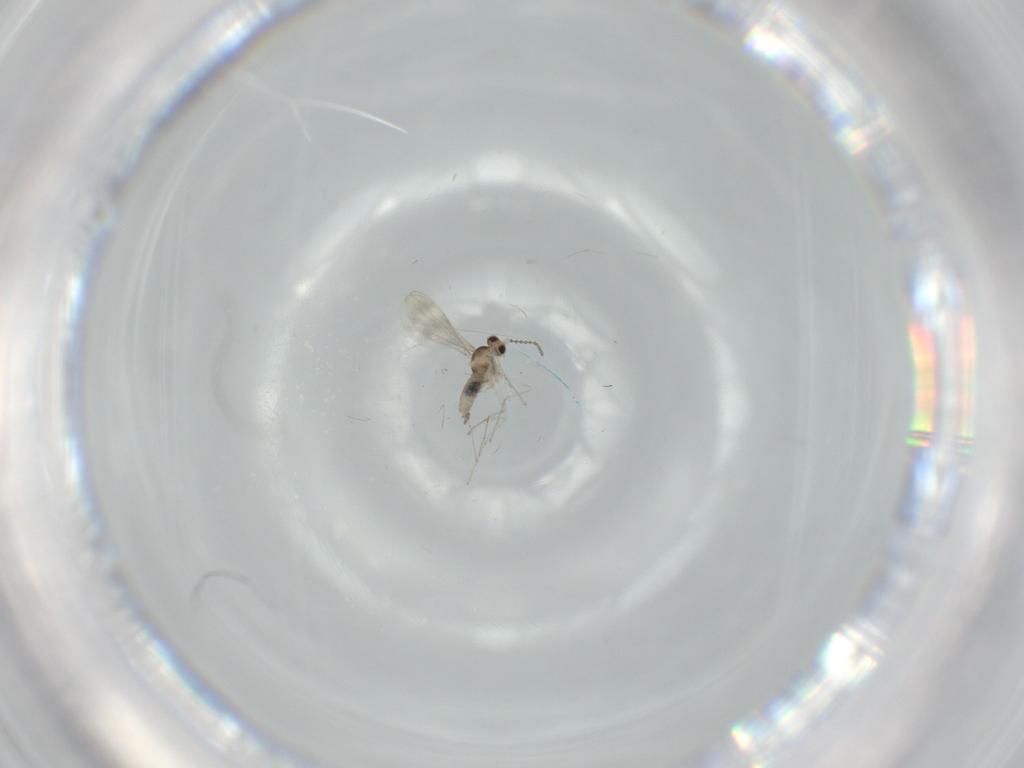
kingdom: Animalia
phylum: Arthropoda
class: Insecta
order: Diptera
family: Cecidomyiidae
